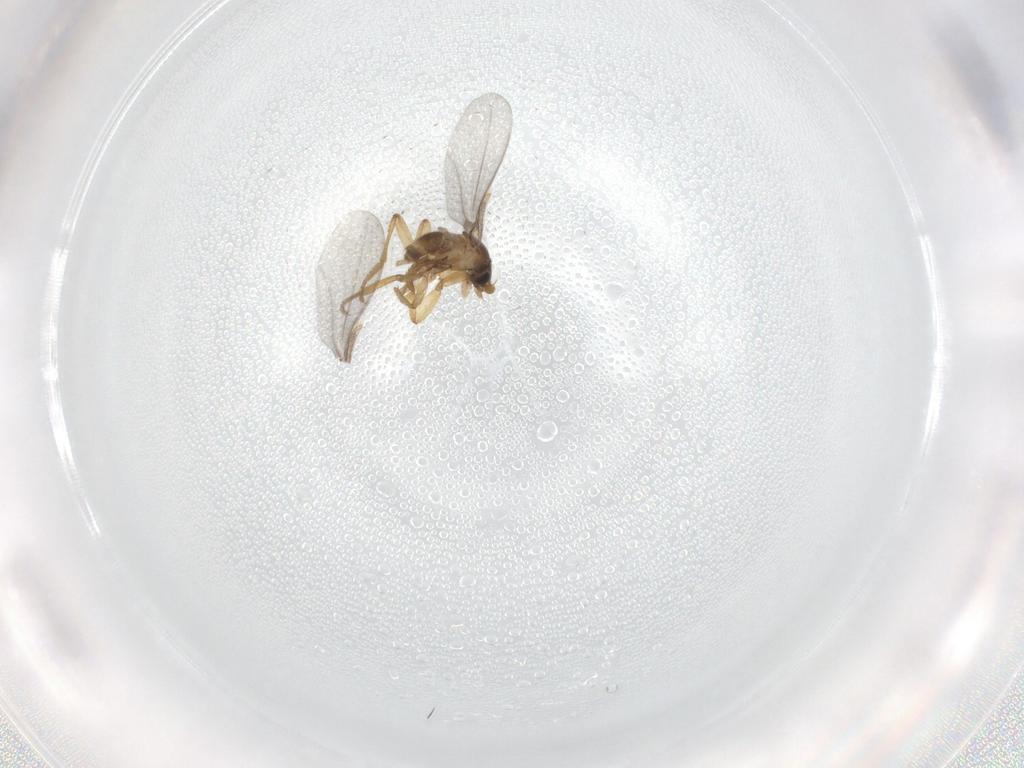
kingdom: Animalia
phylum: Arthropoda
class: Insecta
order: Diptera
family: Phoridae
